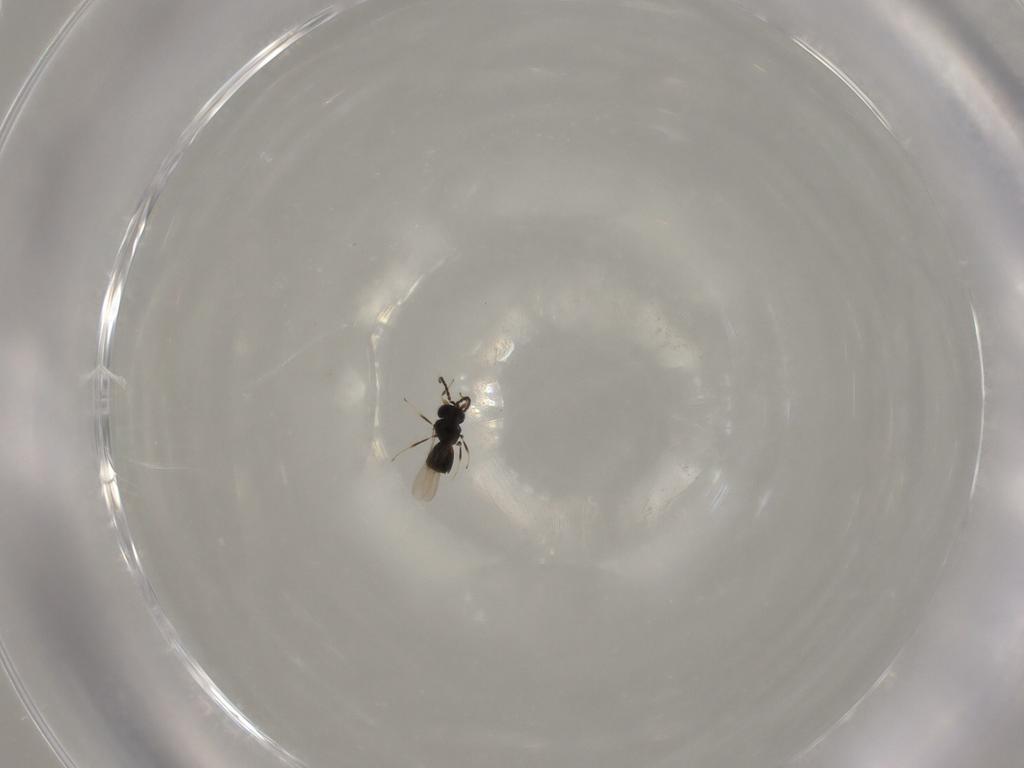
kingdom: Animalia
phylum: Arthropoda
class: Insecta
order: Hymenoptera
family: Scelionidae
